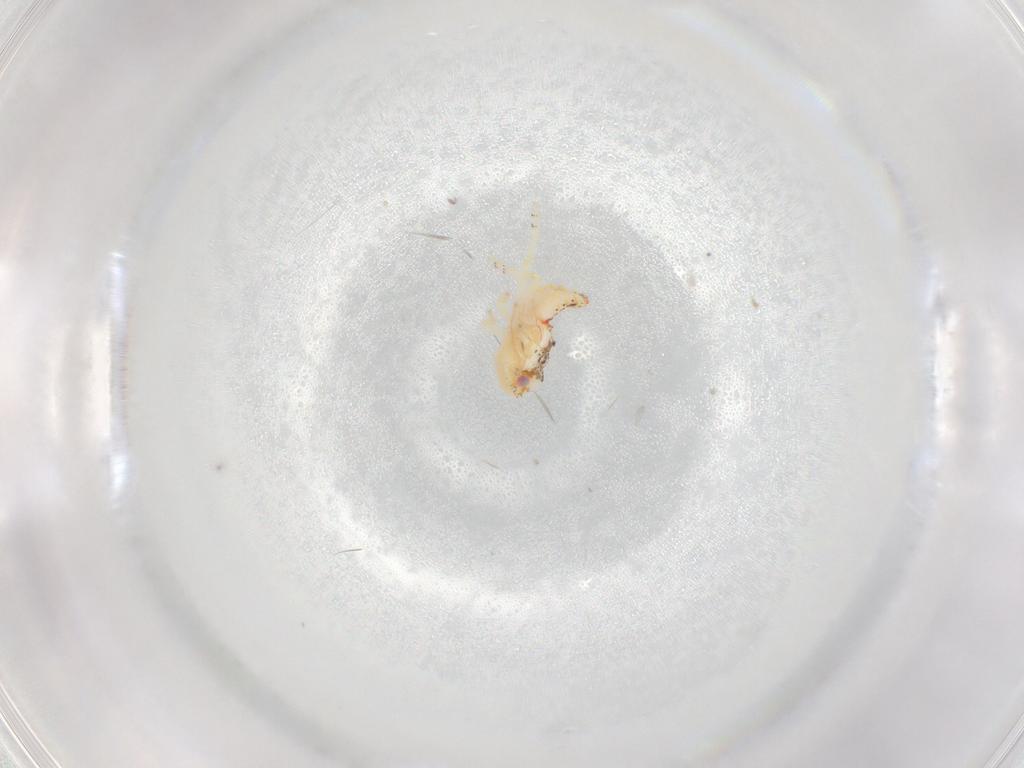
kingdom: Animalia
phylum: Arthropoda
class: Insecta
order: Hemiptera
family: Flatidae
